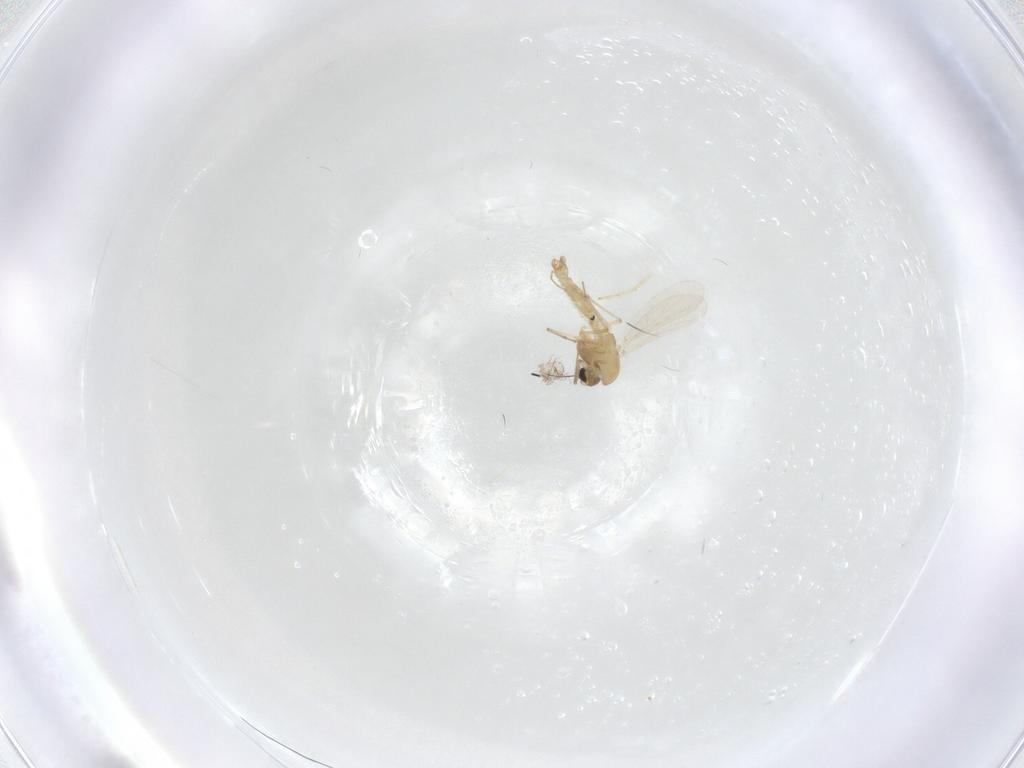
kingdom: Animalia
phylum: Arthropoda
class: Insecta
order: Diptera
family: Chironomidae
